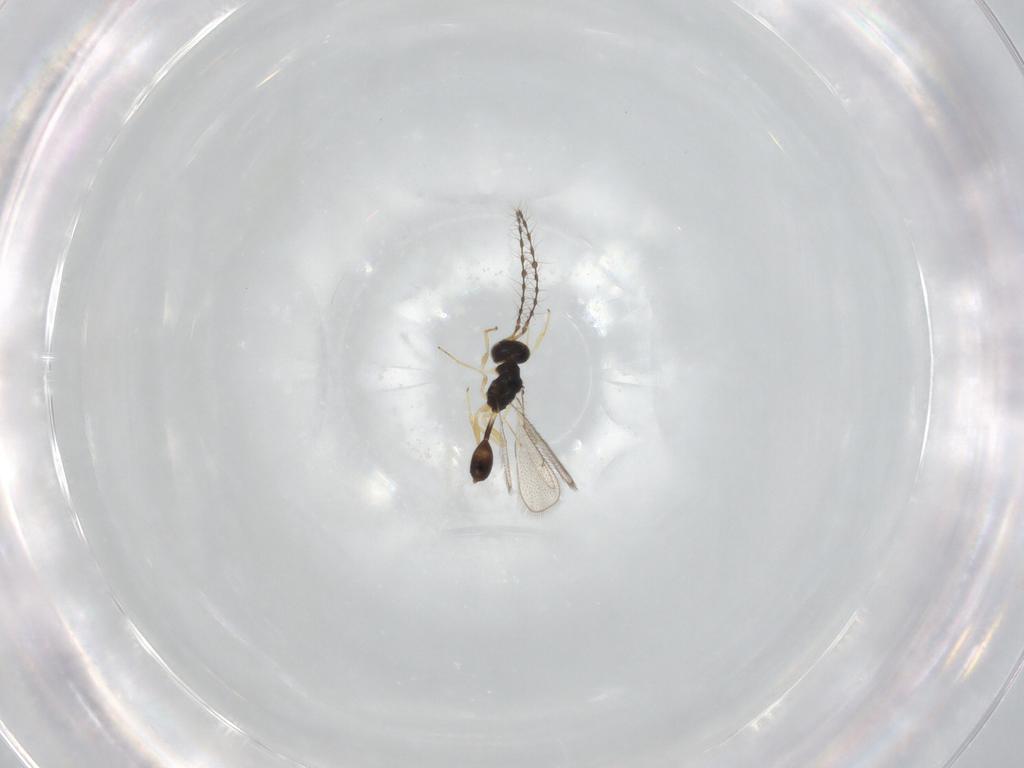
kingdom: Animalia
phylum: Arthropoda
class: Insecta
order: Hymenoptera
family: Diparidae
